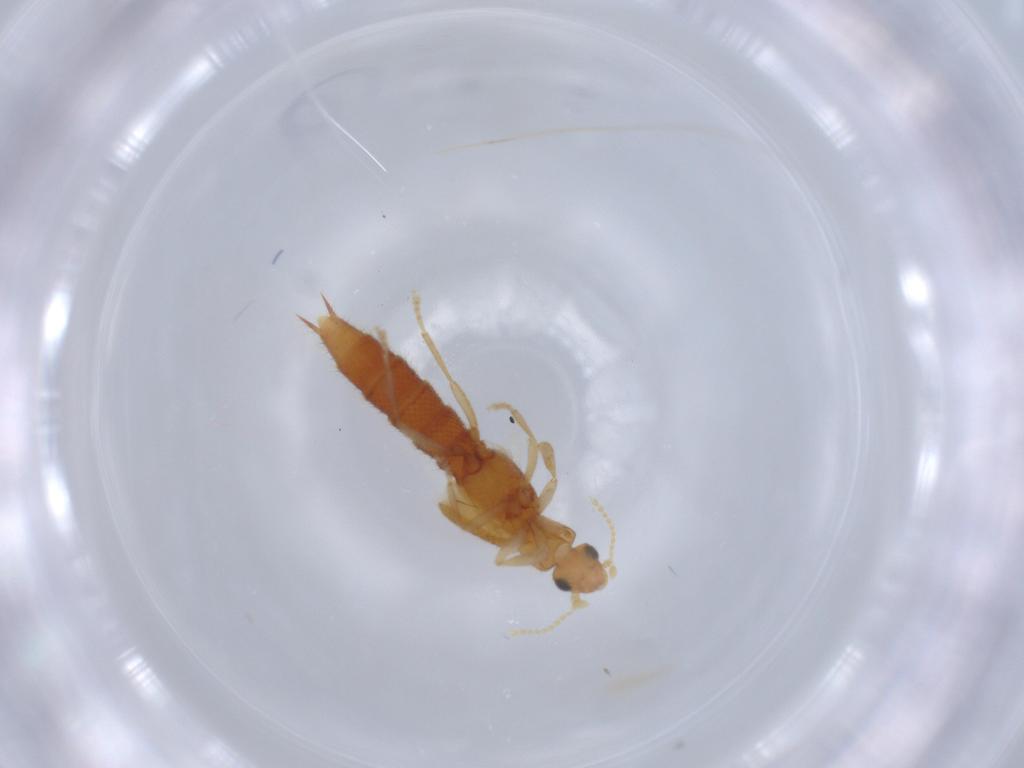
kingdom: Animalia
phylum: Arthropoda
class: Insecta
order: Coleoptera
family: Staphylinidae
